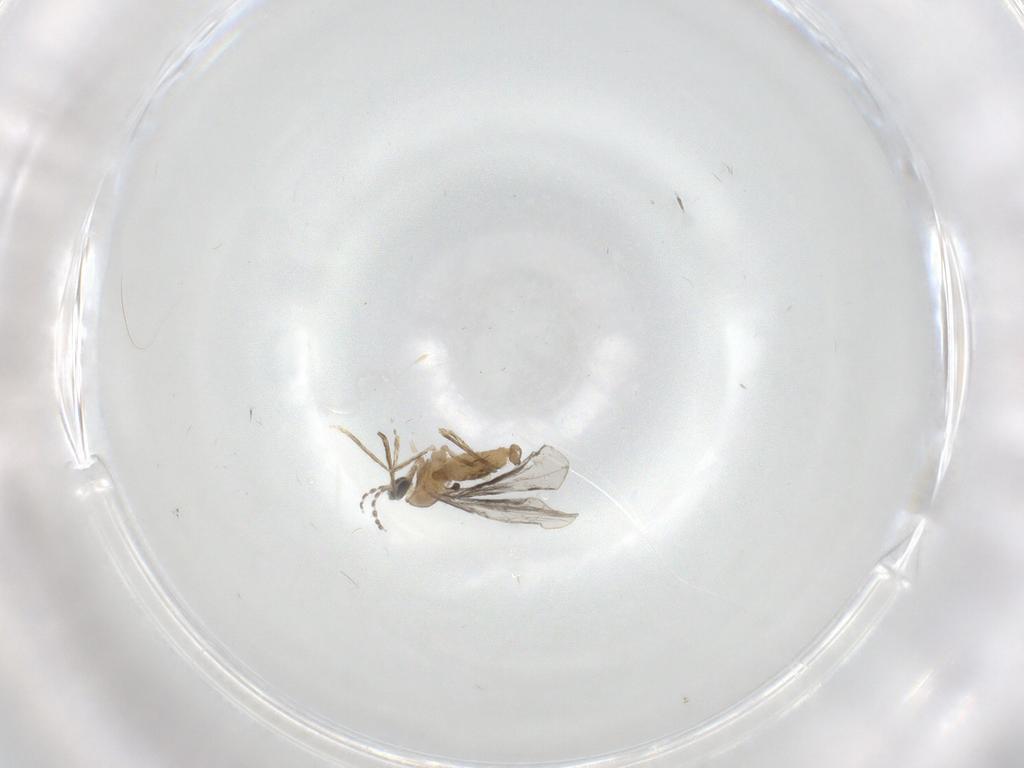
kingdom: Animalia
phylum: Arthropoda
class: Insecta
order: Diptera
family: Cecidomyiidae
